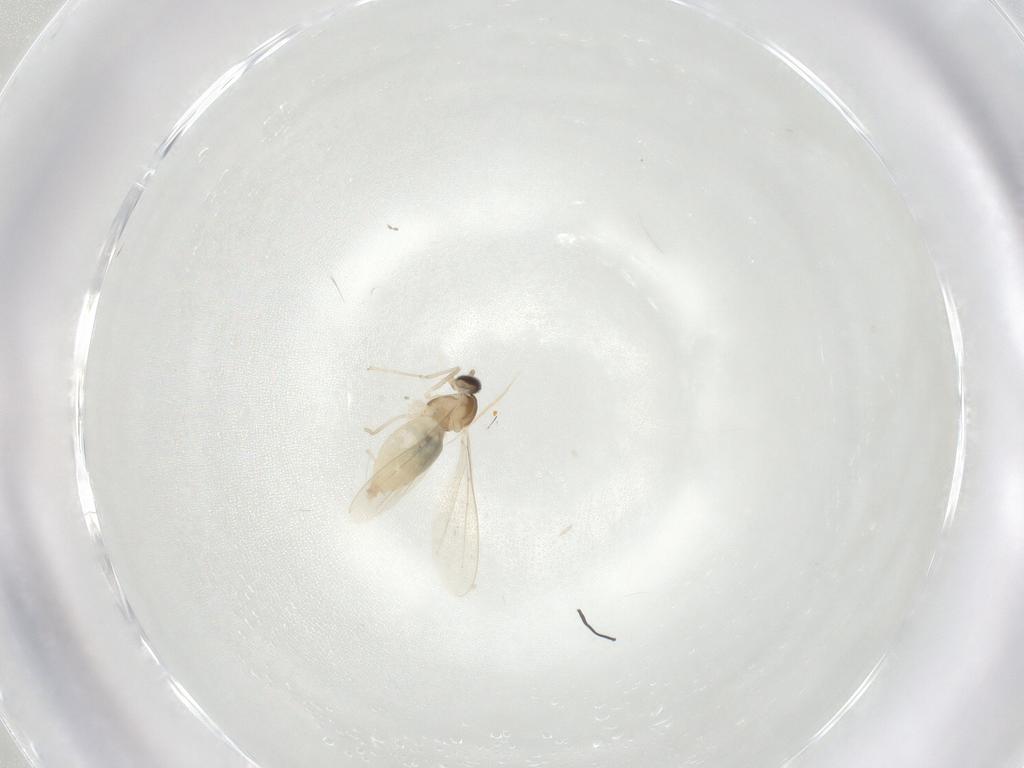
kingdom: Animalia
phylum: Arthropoda
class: Insecta
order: Diptera
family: Cecidomyiidae
